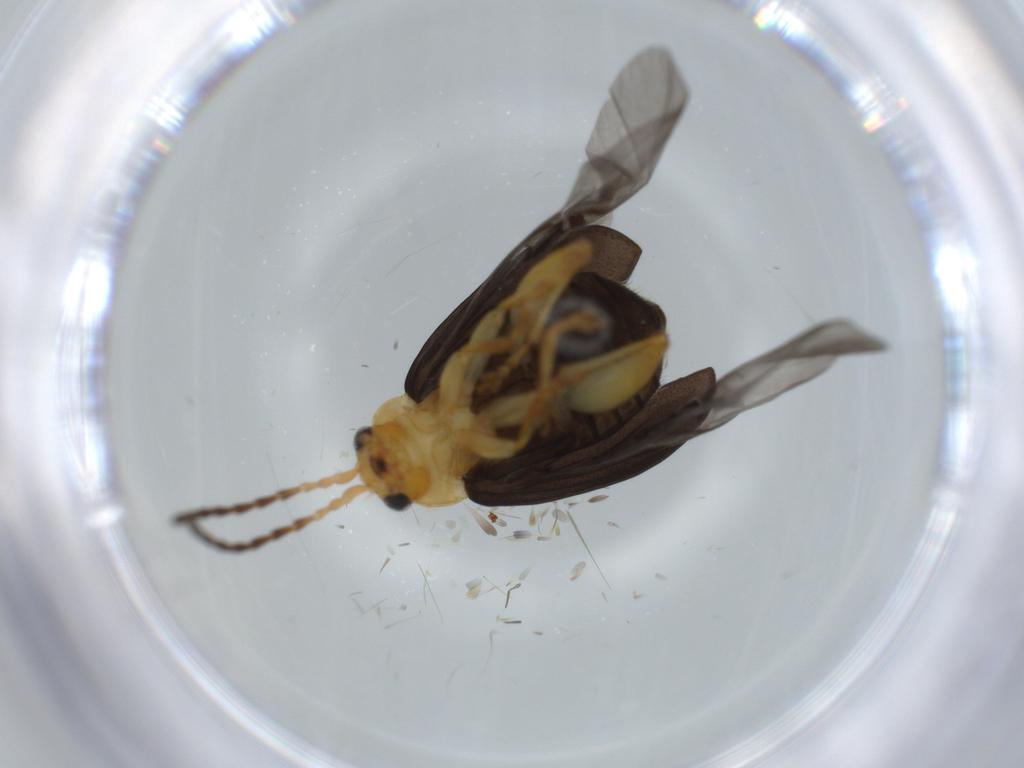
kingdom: Animalia
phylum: Arthropoda
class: Insecta
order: Coleoptera
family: Chrysomelidae
